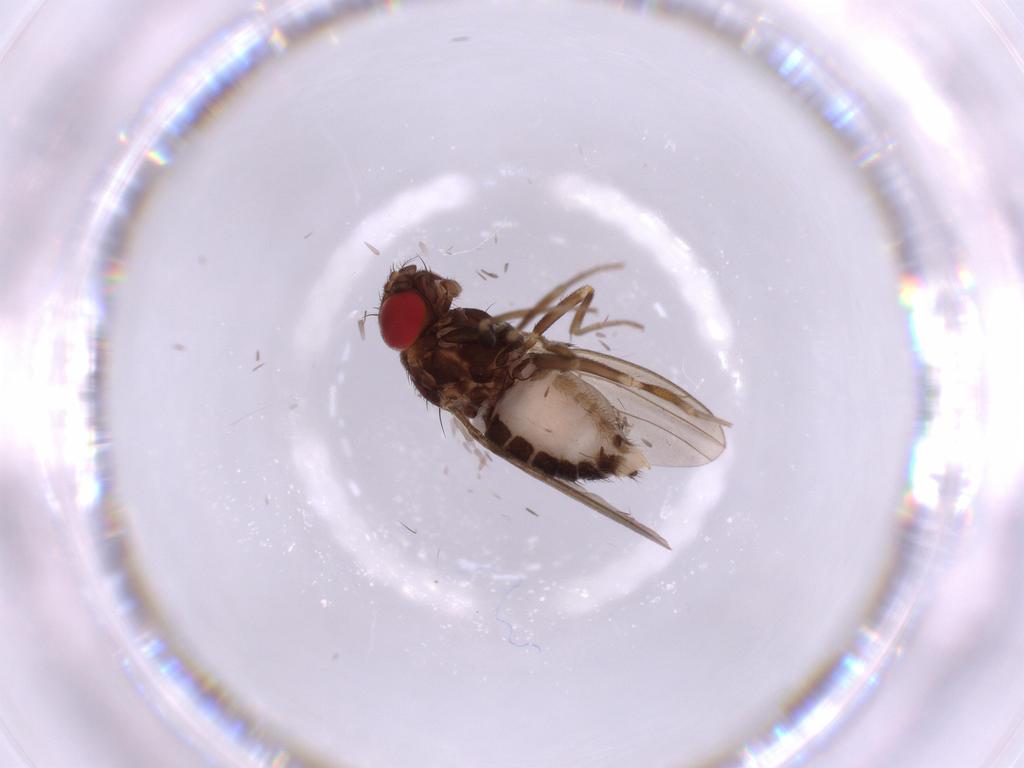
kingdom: Animalia
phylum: Arthropoda
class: Insecta
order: Diptera
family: Drosophilidae
